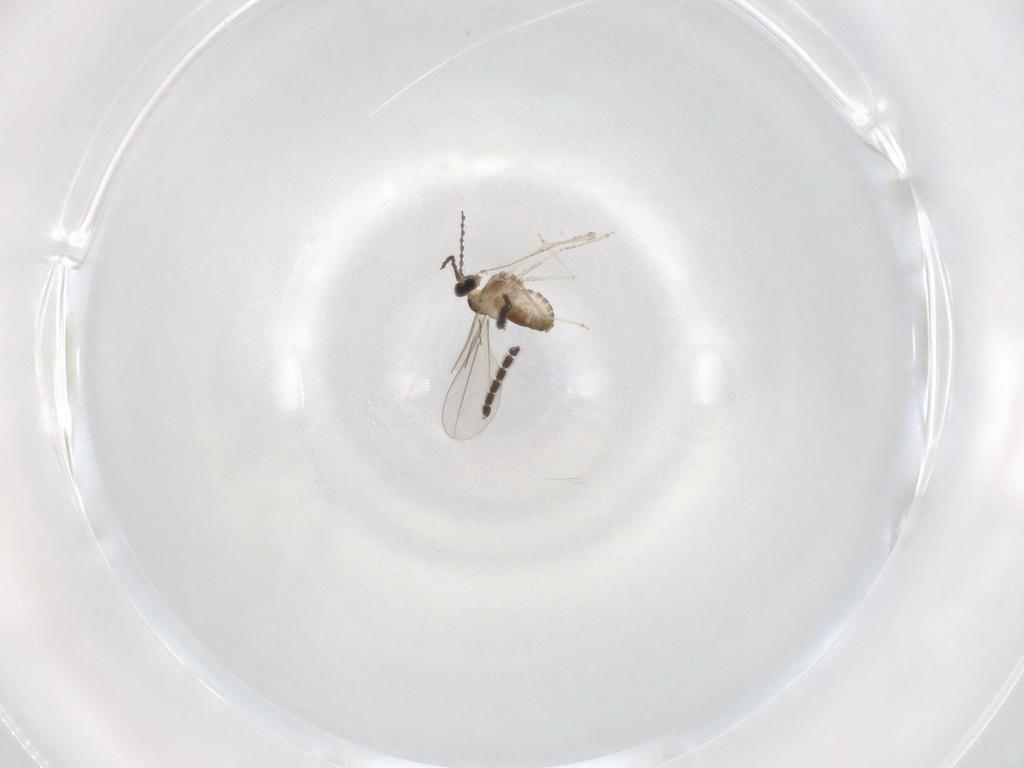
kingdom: Animalia
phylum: Arthropoda
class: Insecta
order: Diptera
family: Cecidomyiidae
